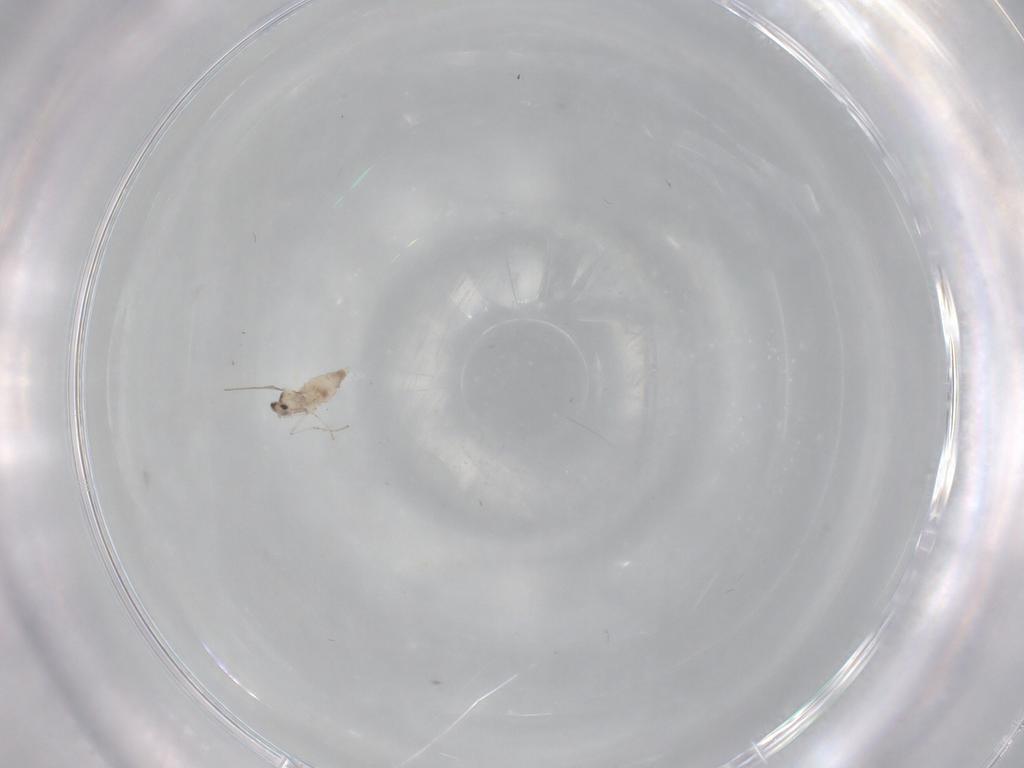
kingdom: Animalia
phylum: Arthropoda
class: Insecta
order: Diptera
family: Cecidomyiidae
